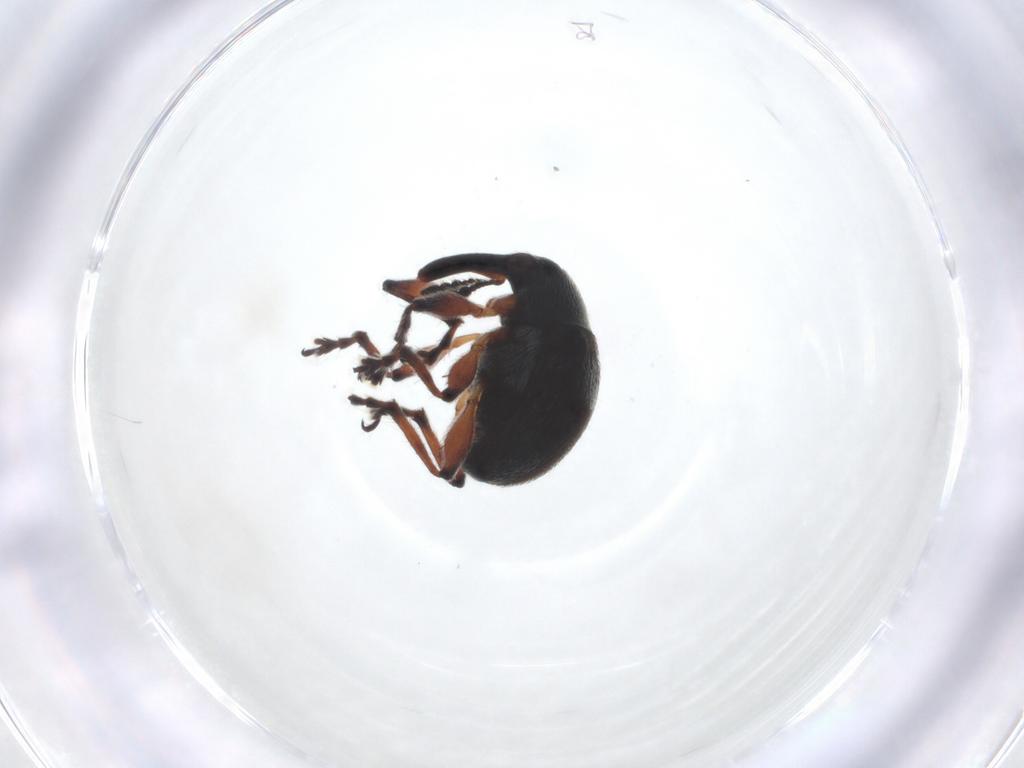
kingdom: Animalia
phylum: Arthropoda
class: Insecta
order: Coleoptera
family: Brentidae
